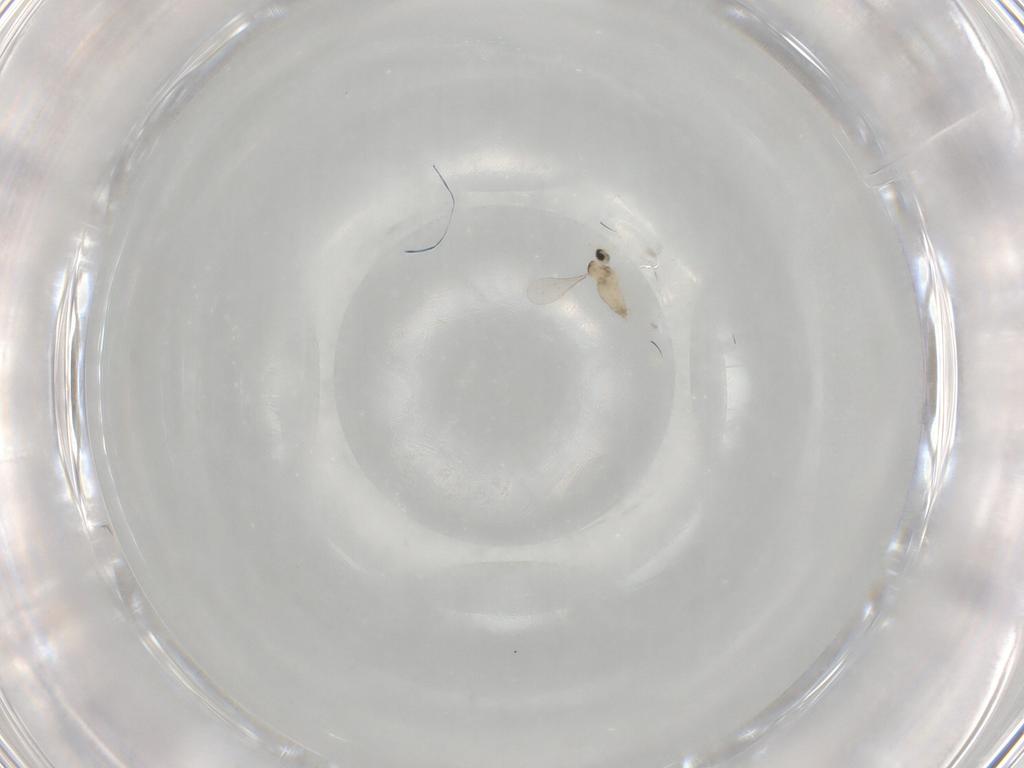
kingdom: Animalia
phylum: Arthropoda
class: Insecta
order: Diptera
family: Cecidomyiidae
